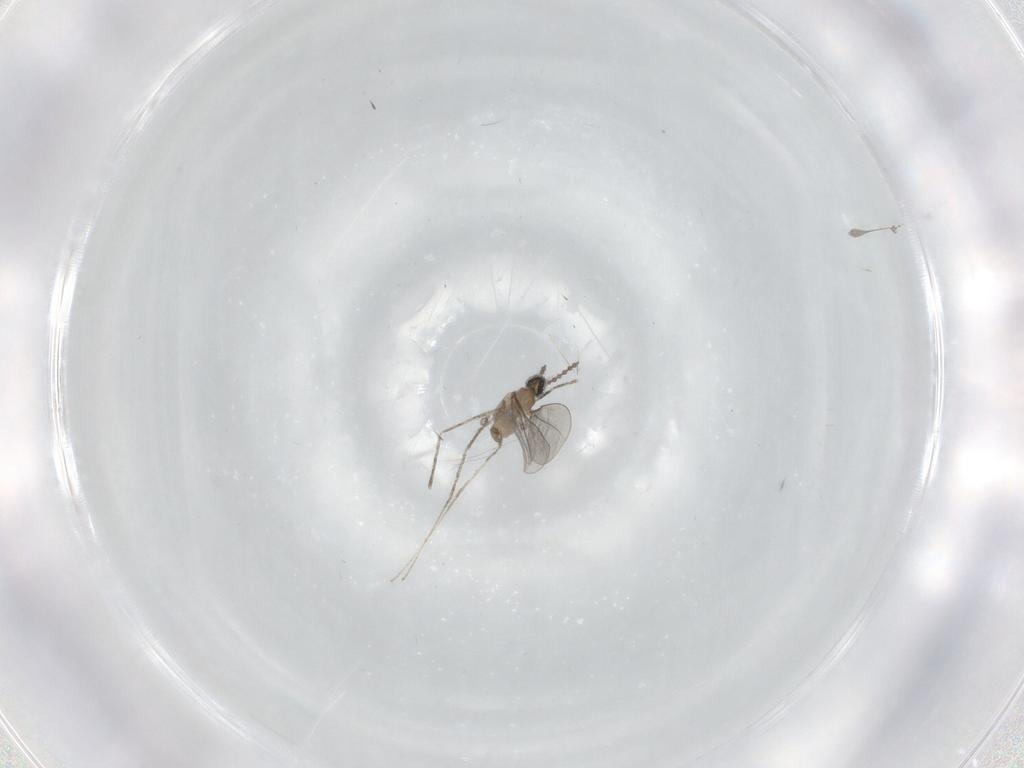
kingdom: Animalia
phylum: Arthropoda
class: Insecta
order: Diptera
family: Cecidomyiidae
